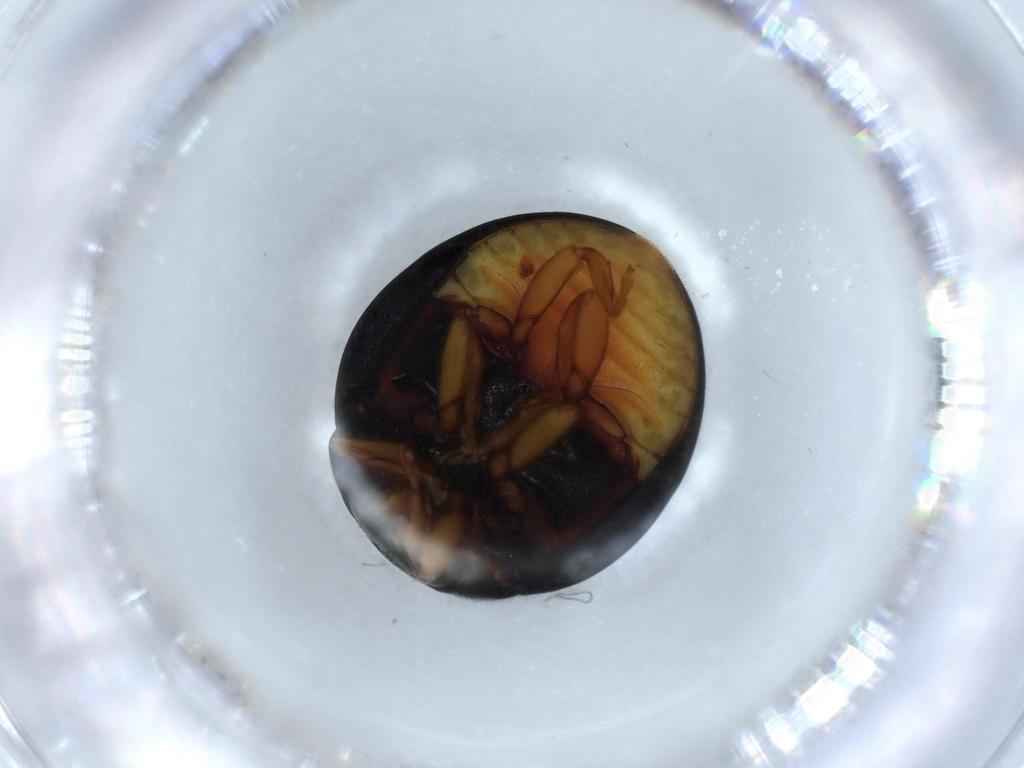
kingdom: Animalia
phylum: Arthropoda
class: Insecta
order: Coleoptera
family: Coccinellidae
